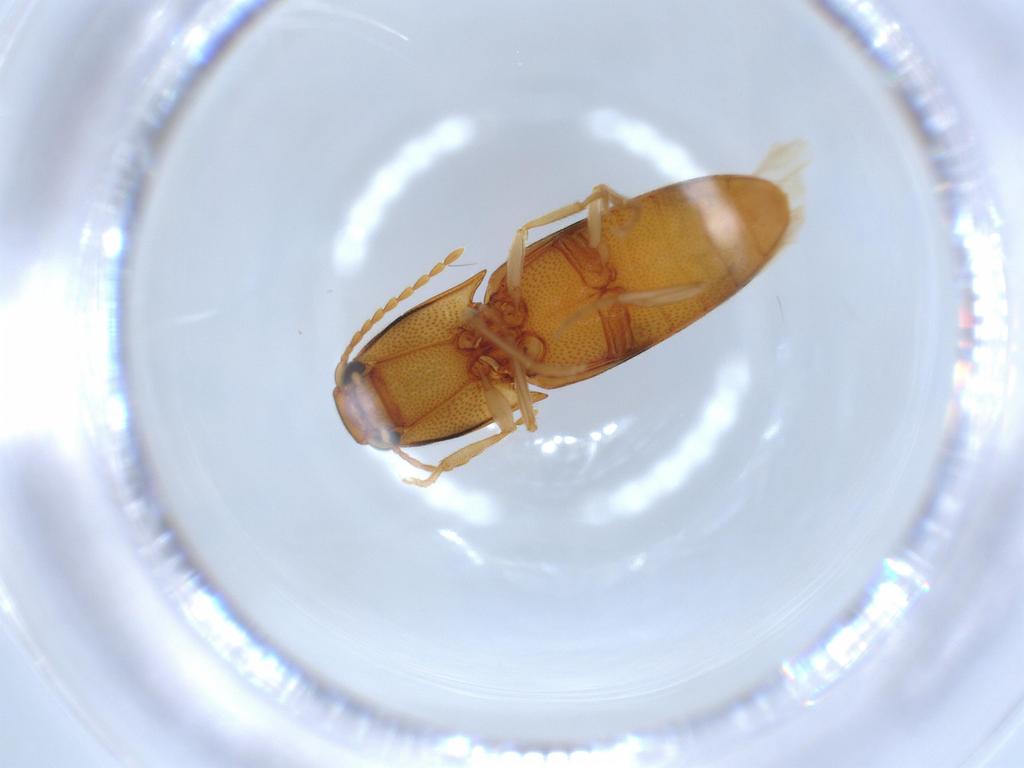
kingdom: Animalia
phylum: Arthropoda
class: Insecta
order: Coleoptera
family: Elateridae
